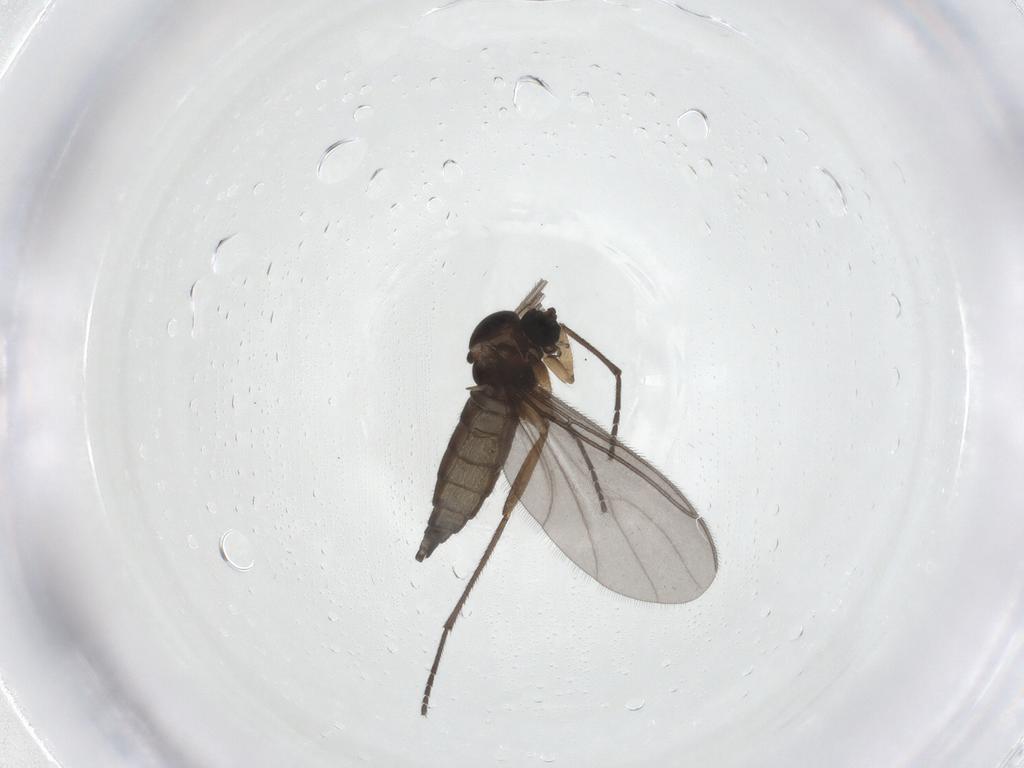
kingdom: Animalia
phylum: Arthropoda
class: Insecta
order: Diptera
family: Sciaridae
